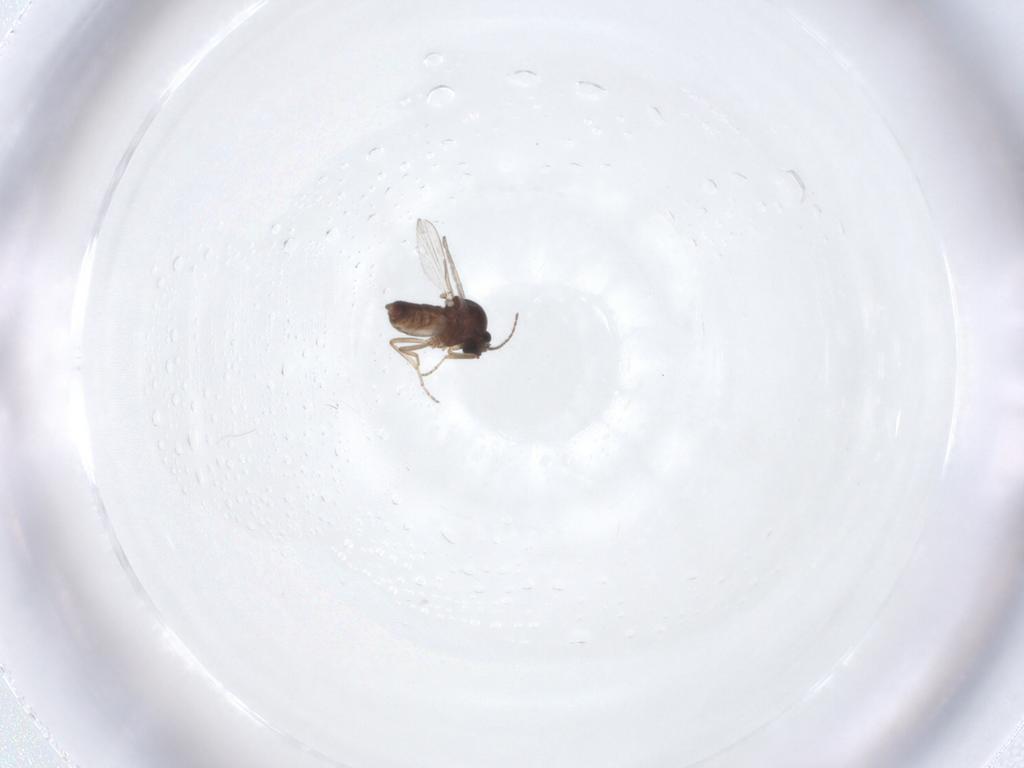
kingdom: Animalia
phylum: Arthropoda
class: Insecta
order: Diptera
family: Ceratopogonidae
